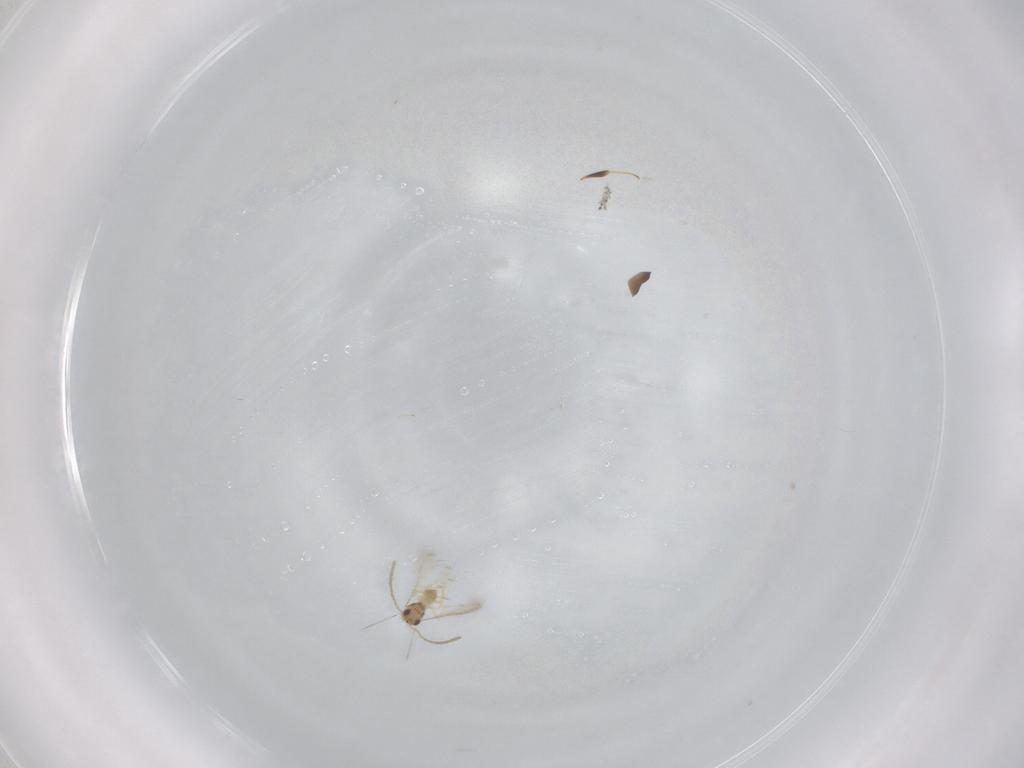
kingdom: Animalia
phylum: Arthropoda
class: Insecta
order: Hymenoptera
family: Mymaridae
